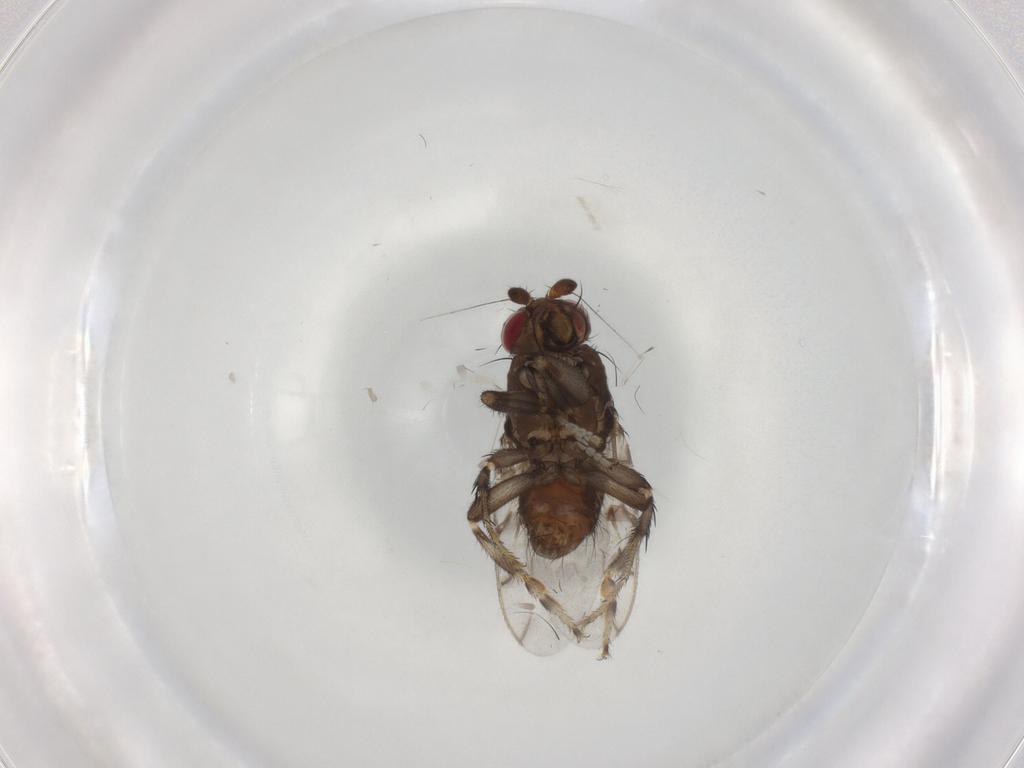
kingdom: Animalia
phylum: Arthropoda
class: Insecta
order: Diptera
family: Sphaeroceridae
